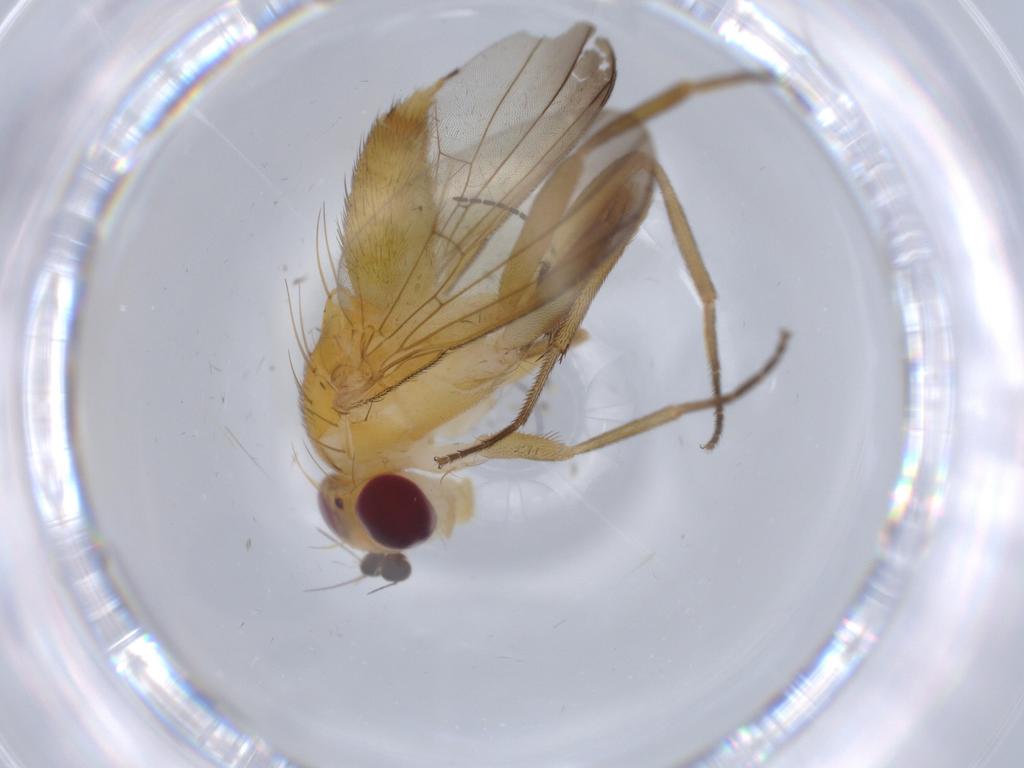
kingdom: Animalia
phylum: Arthropoda
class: Insecta
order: Diptera
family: Clusiidae
